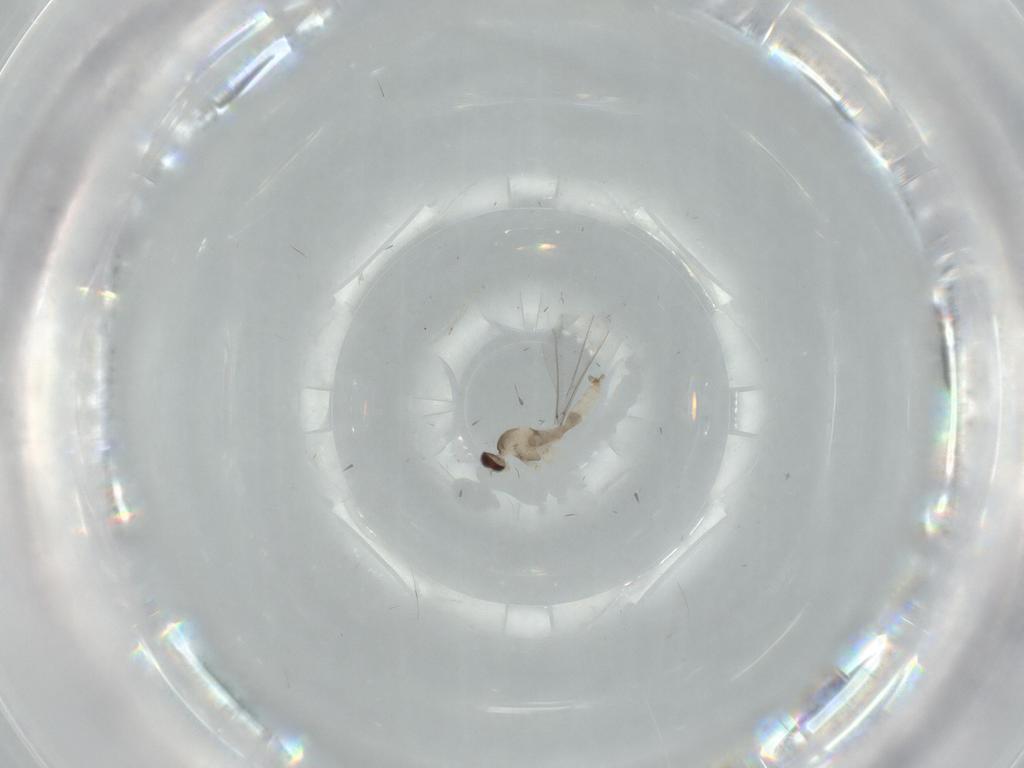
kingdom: Animalia
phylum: Arthropoda
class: Insecta
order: Diptera
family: Cecidomyiidae
